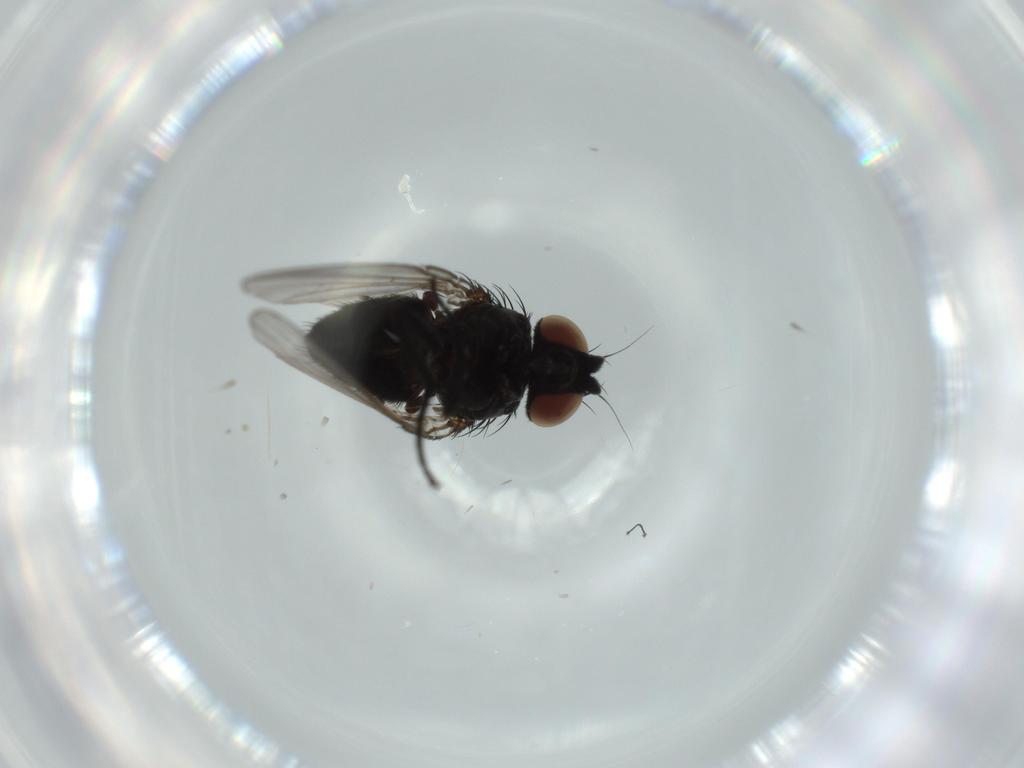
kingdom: Animalia
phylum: Arthropoda
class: Insecta
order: Diptera
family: Milichiidae
